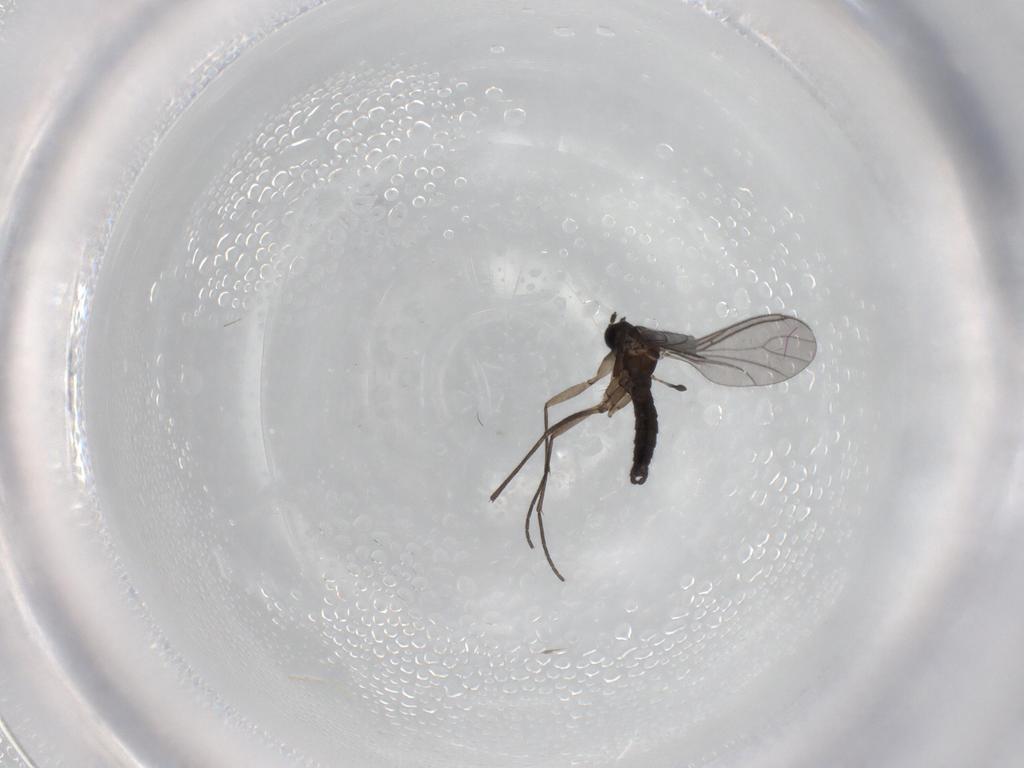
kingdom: Animalia
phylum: Arthropoda
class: Insecta
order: Diptera
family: Sciaridae
